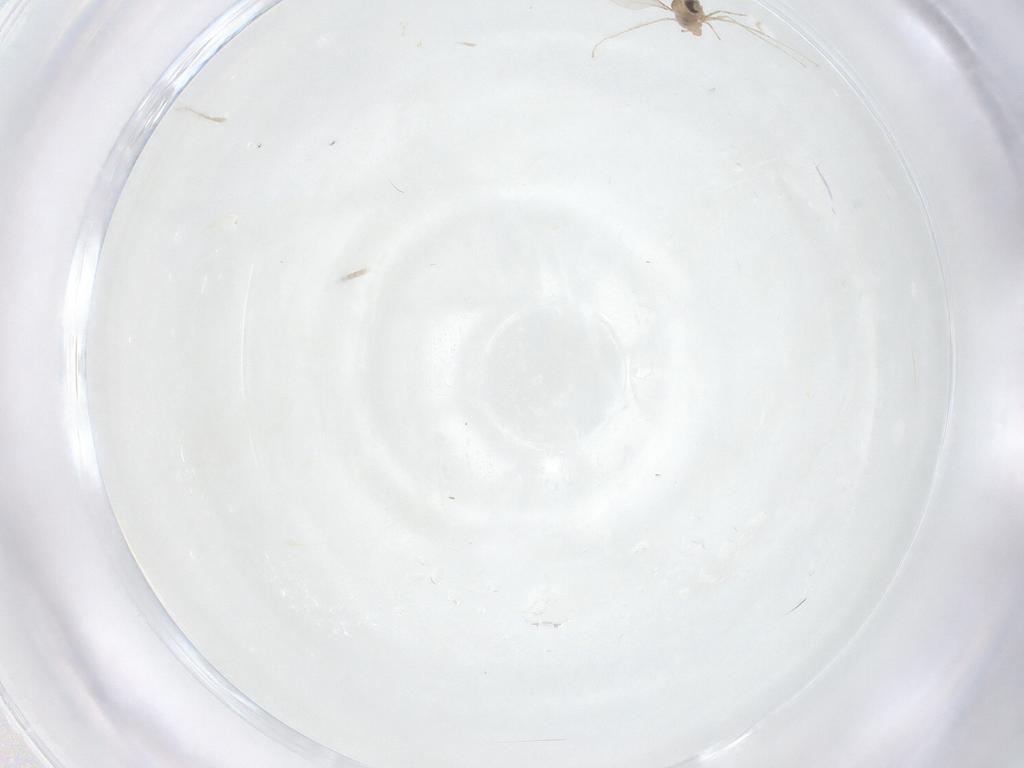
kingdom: Animalia
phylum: Arthropoda
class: Insecta
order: Diptera
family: Cecidomyiidae
